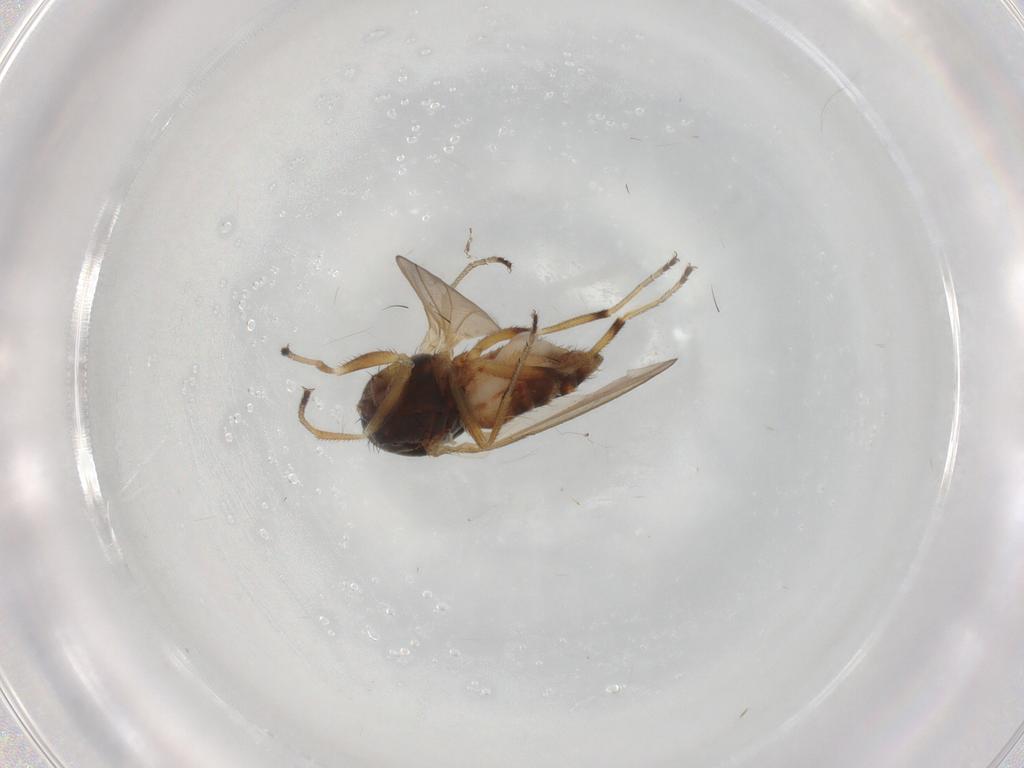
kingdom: Animalia
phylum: Arthropoda
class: Insecta
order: Diptera
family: Canacidae
